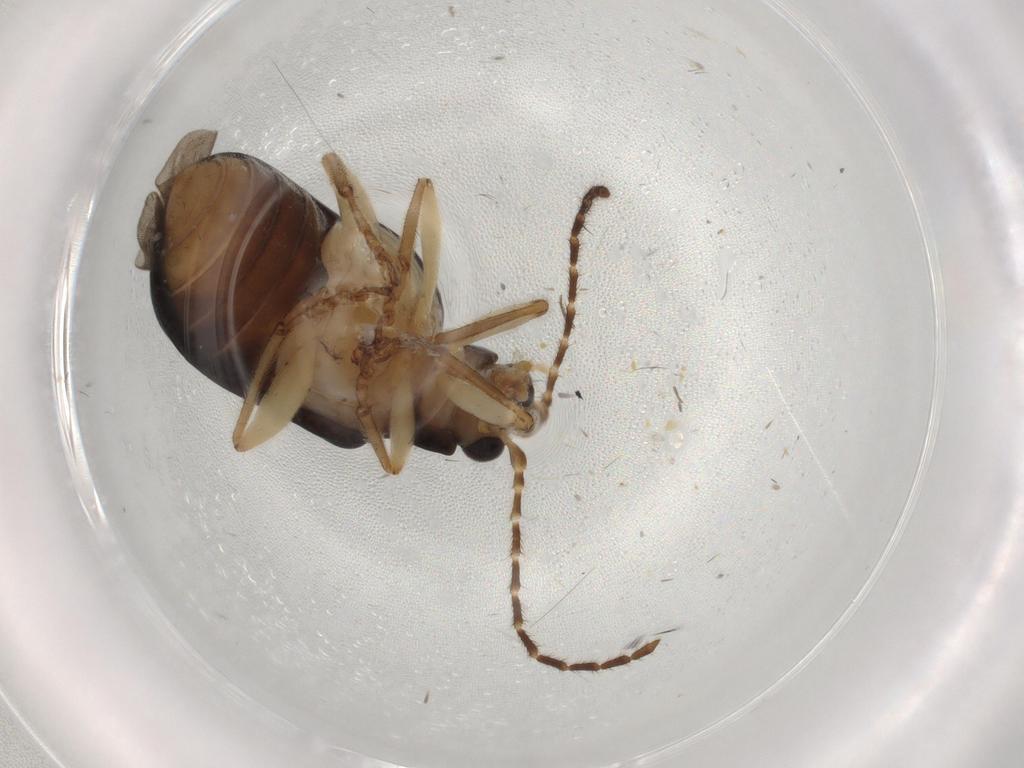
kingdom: Animalia
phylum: Arthropoda
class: Insecta
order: Coleoptera
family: Chrysomelidae
